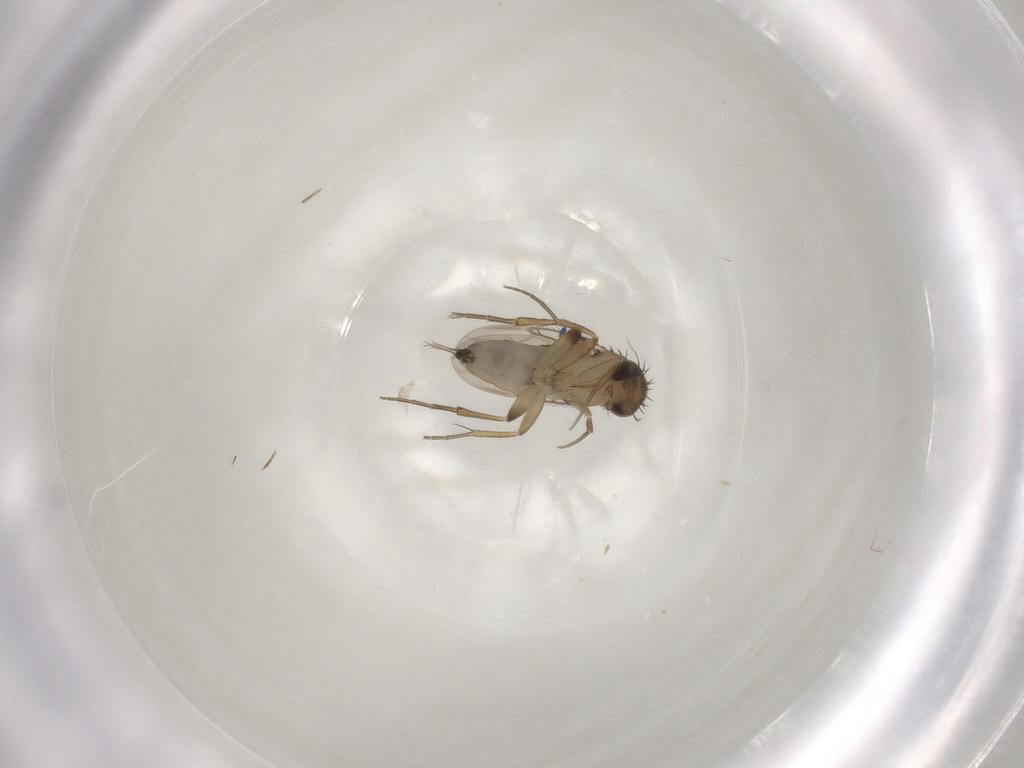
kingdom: Animalia
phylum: Arthropoda
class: Insecta
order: Diptera
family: Phoridae
